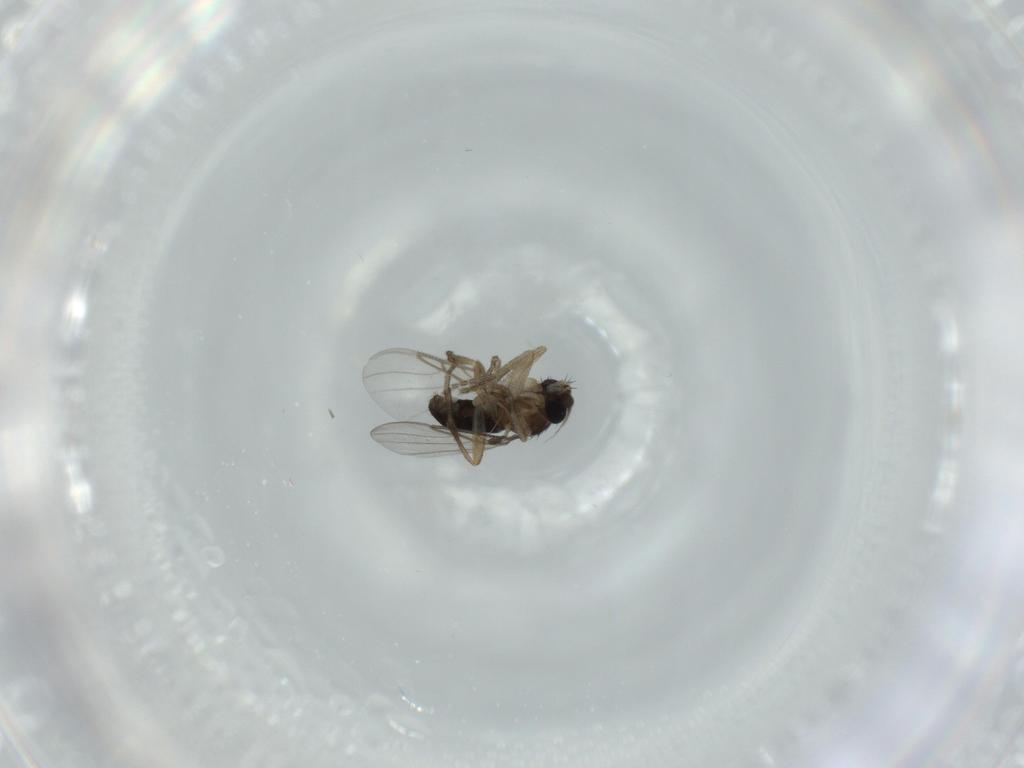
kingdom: Animalia
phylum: Arthropoda
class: Insecta
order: Diptera
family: Phoridae
